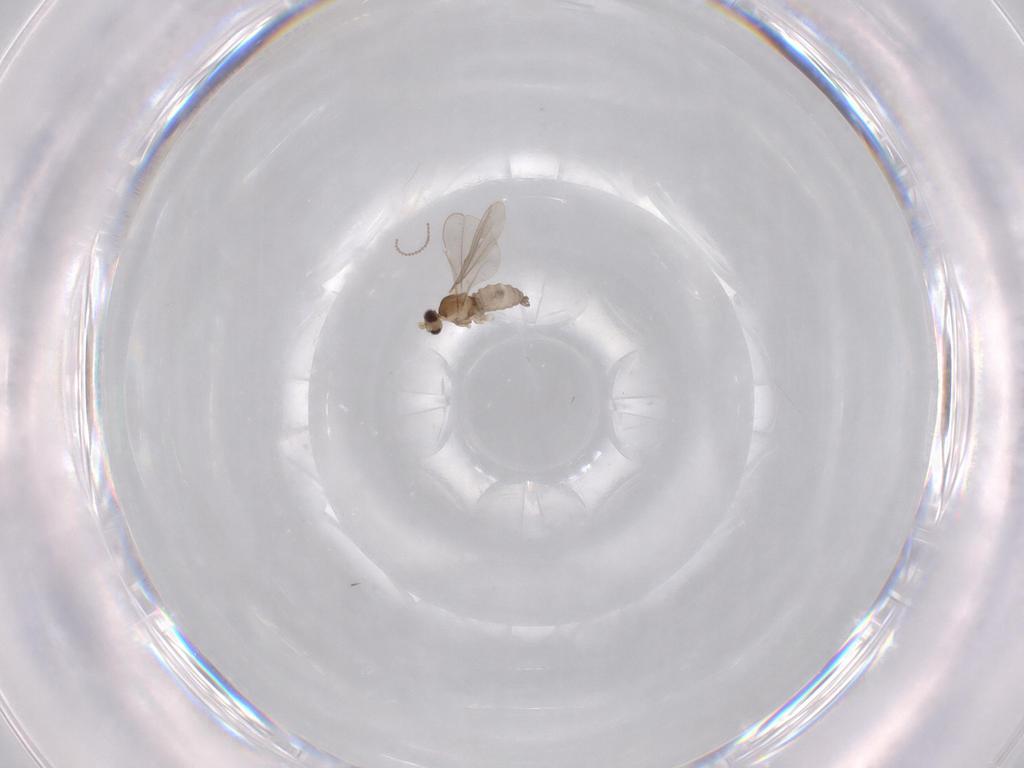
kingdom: Animalia
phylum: Arthropoda
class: Insecta
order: Diptera
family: Cecidomyiidae
